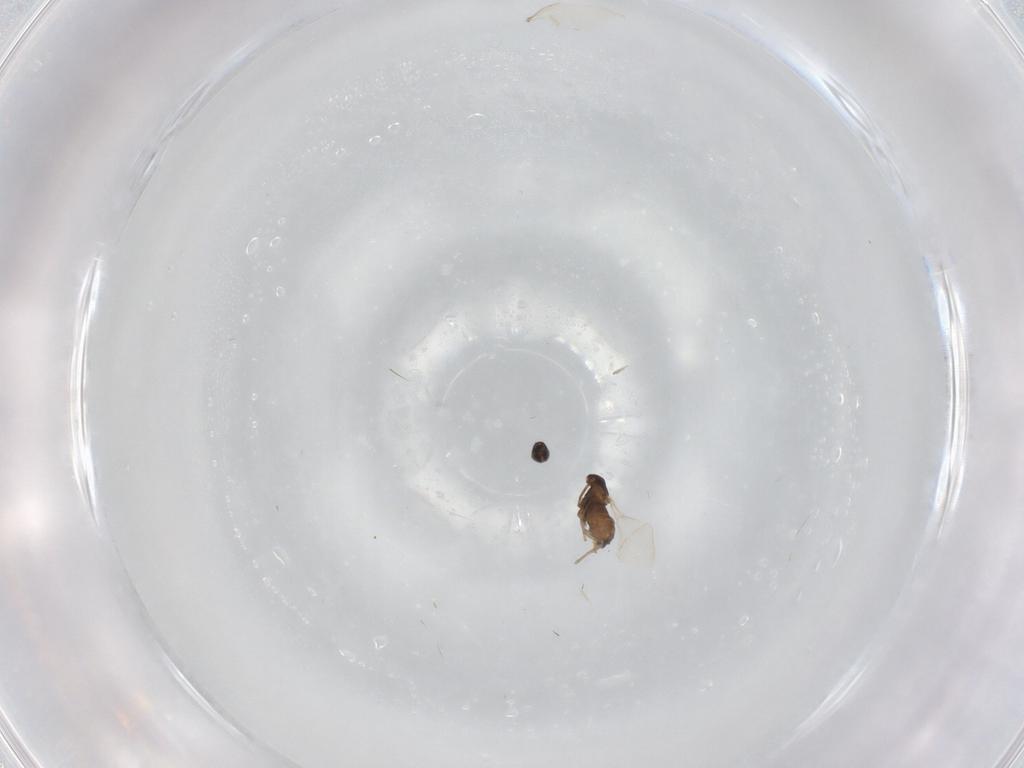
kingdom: Animalia
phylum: Arthropoda
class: Insecta
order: Diptera
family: Cecidomyiidae
